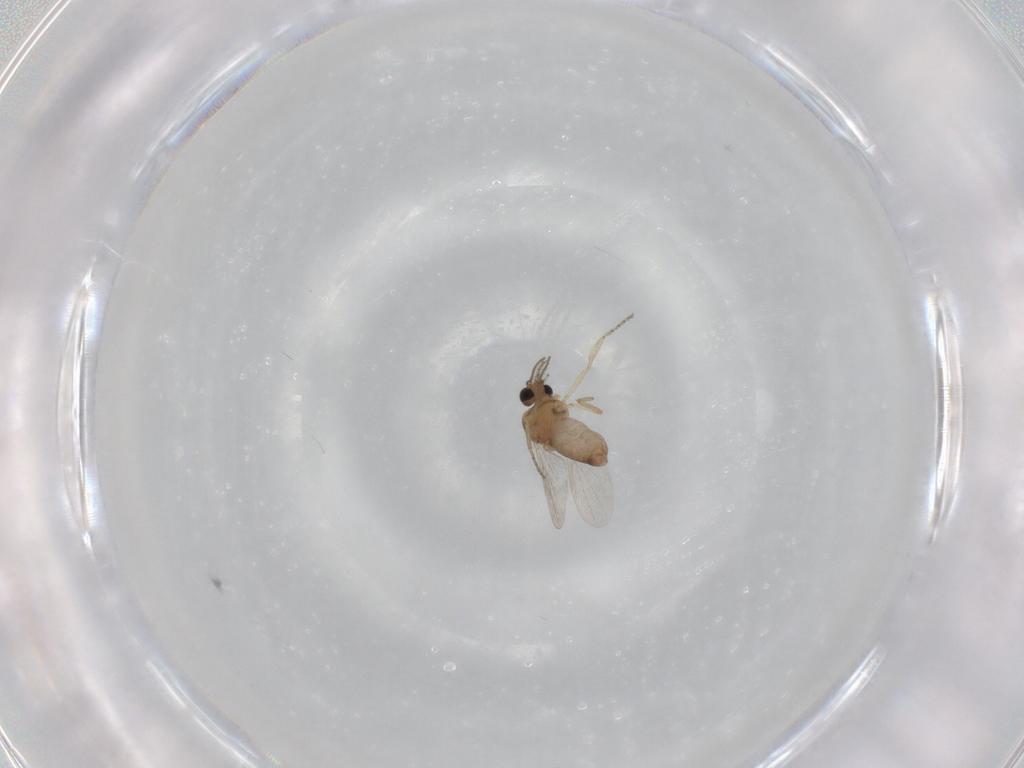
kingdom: Animalia
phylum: Arthropoda
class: Insecta
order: Diptera
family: Ceratopogonidae
